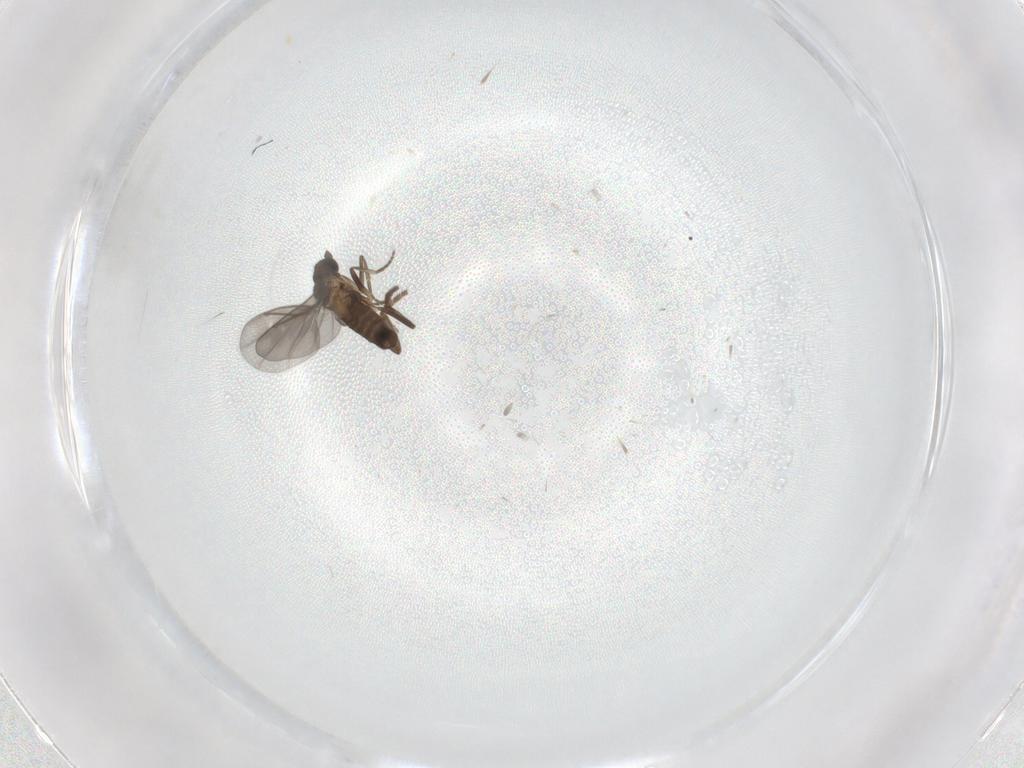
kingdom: Animalia
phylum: Arthropoda
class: Insecta
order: Diptera
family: Phoridae
